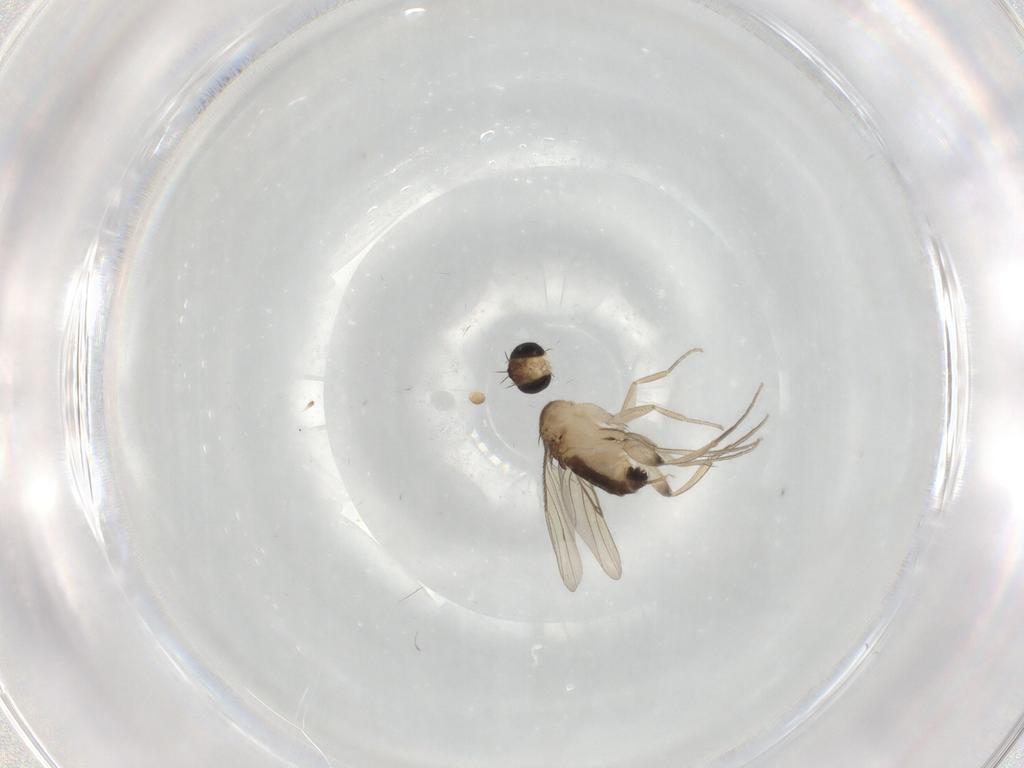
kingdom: Animalia
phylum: Arthropoda
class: Insecta
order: Diptera
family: Phoridae
